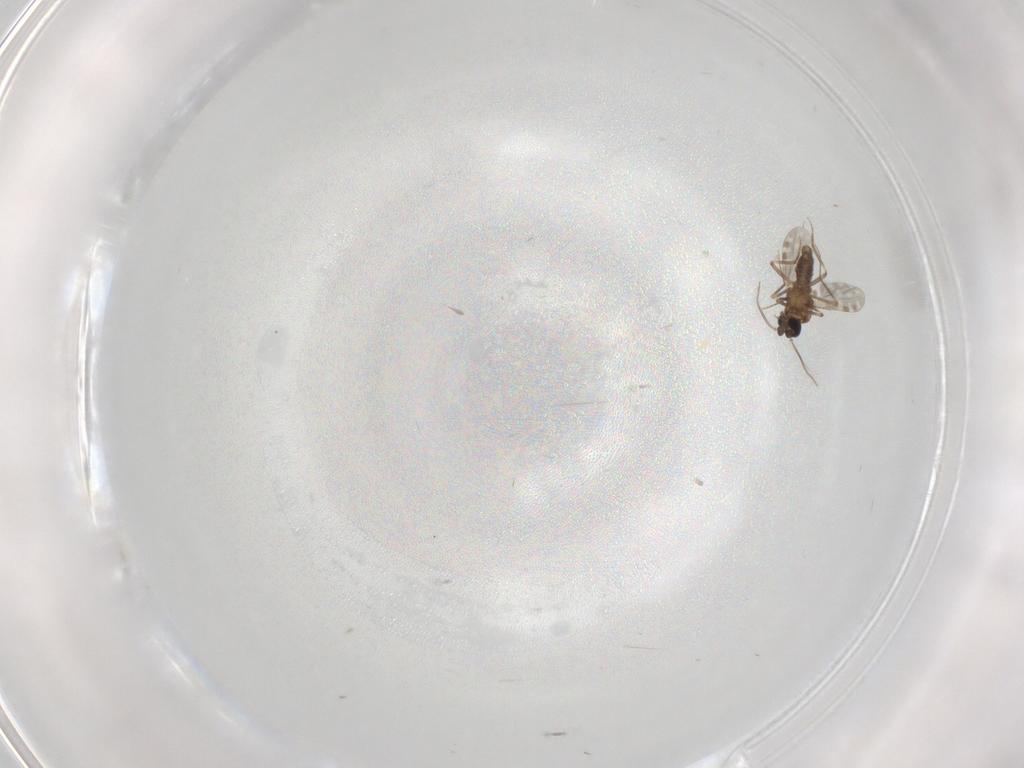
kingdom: Animalia
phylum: Arthropoda
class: Insecta
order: Diptera
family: Ceratopogonidae
